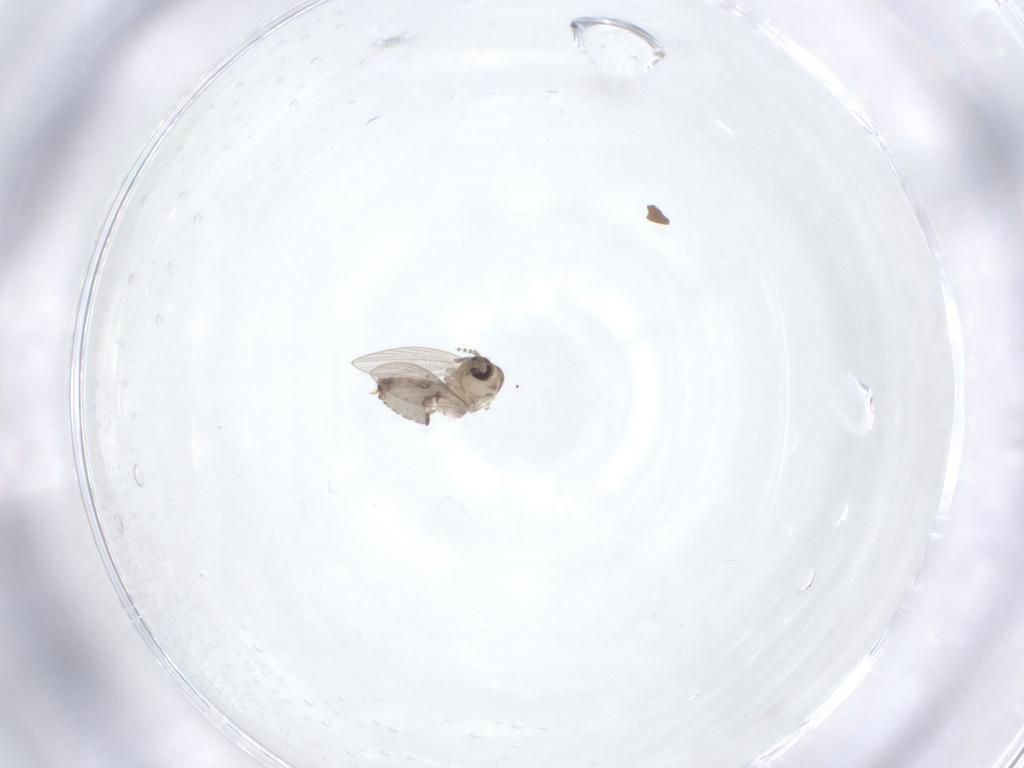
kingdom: Animalia
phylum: Arthropoda
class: Insecta
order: Diptera
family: Psychodidae
